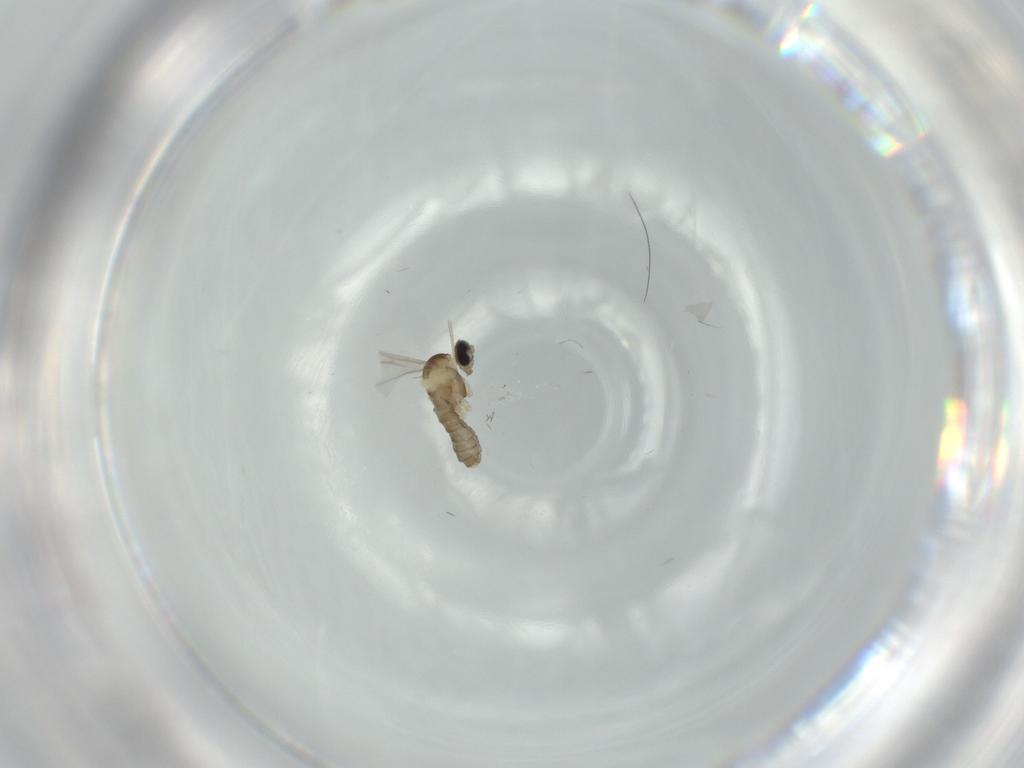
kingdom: Animalia
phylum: Arthropoda
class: Insecta
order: Diptera
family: Cecidomyiidae
